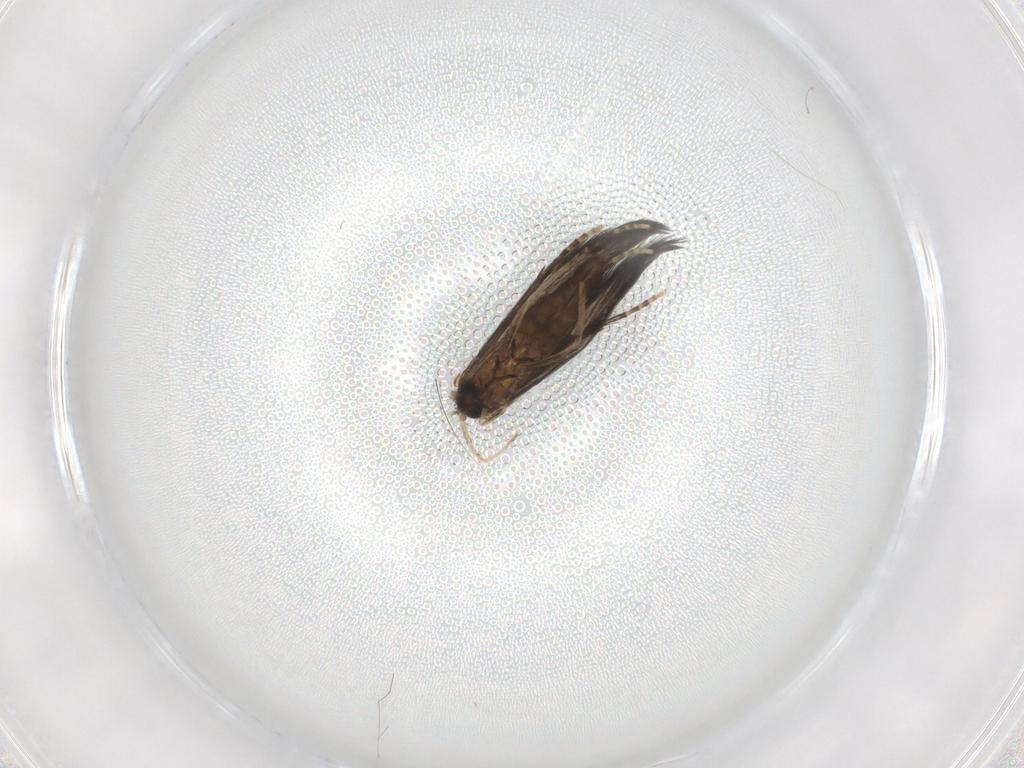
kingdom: Animalia
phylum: Arthropoda
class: Insecta
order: Trichoptera
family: Hydroptilidae
